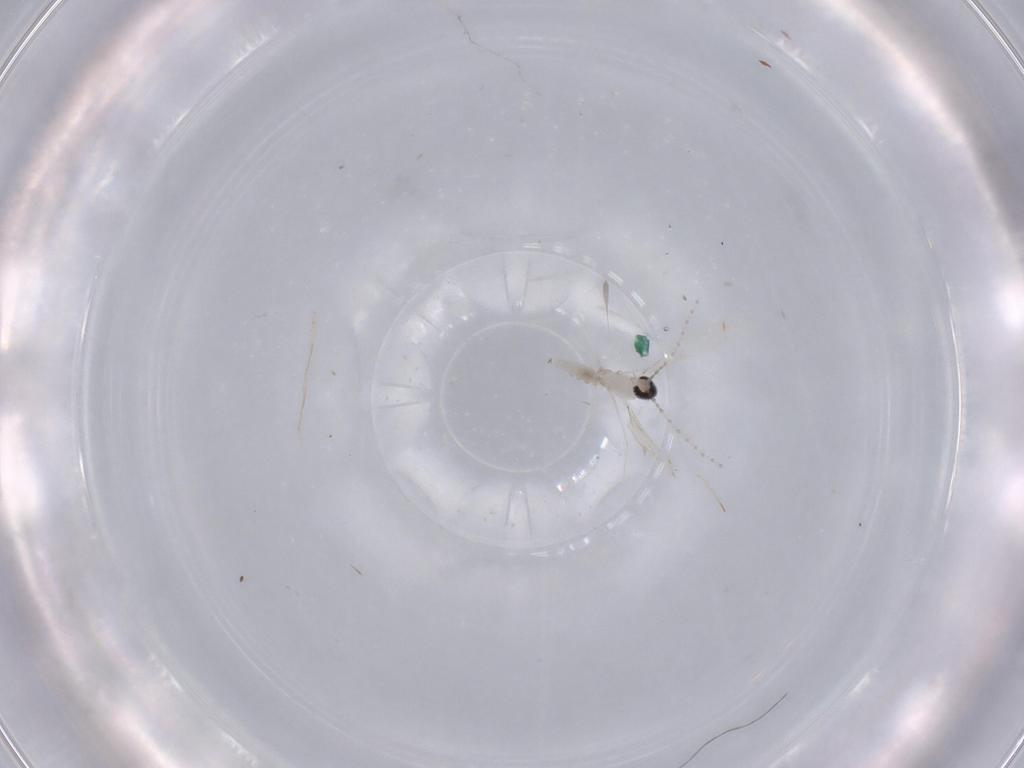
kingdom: Animalia
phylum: Arthropoda
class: Insecta
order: Diptera
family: Cecidomyiidae
